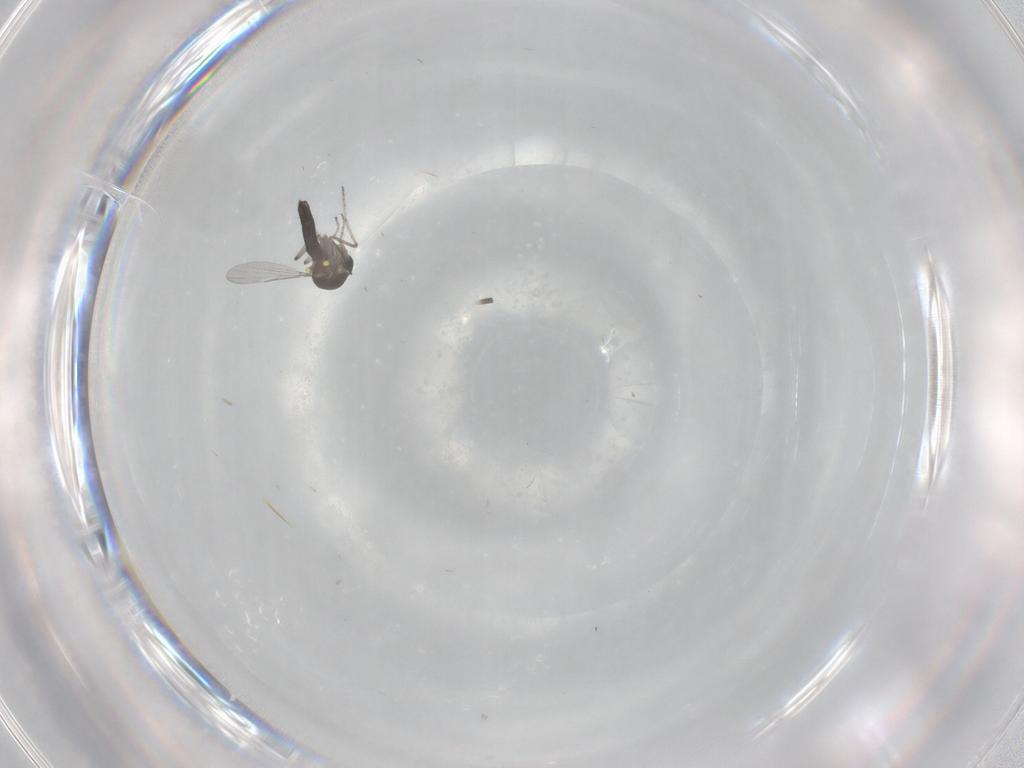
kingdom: Animalia
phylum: Arthropoda
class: Insecta
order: Diptera
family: Ceratopogonidae
